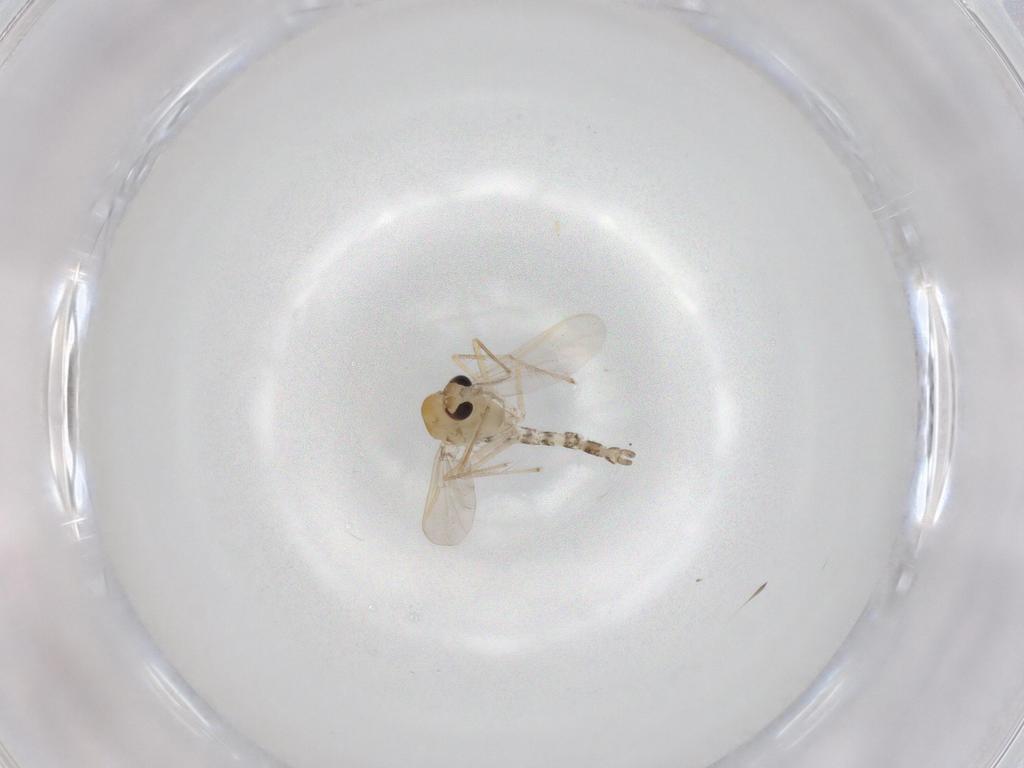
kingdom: Animalia
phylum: Arthropoda
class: Insecta
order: Diptera
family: Chironomidae
